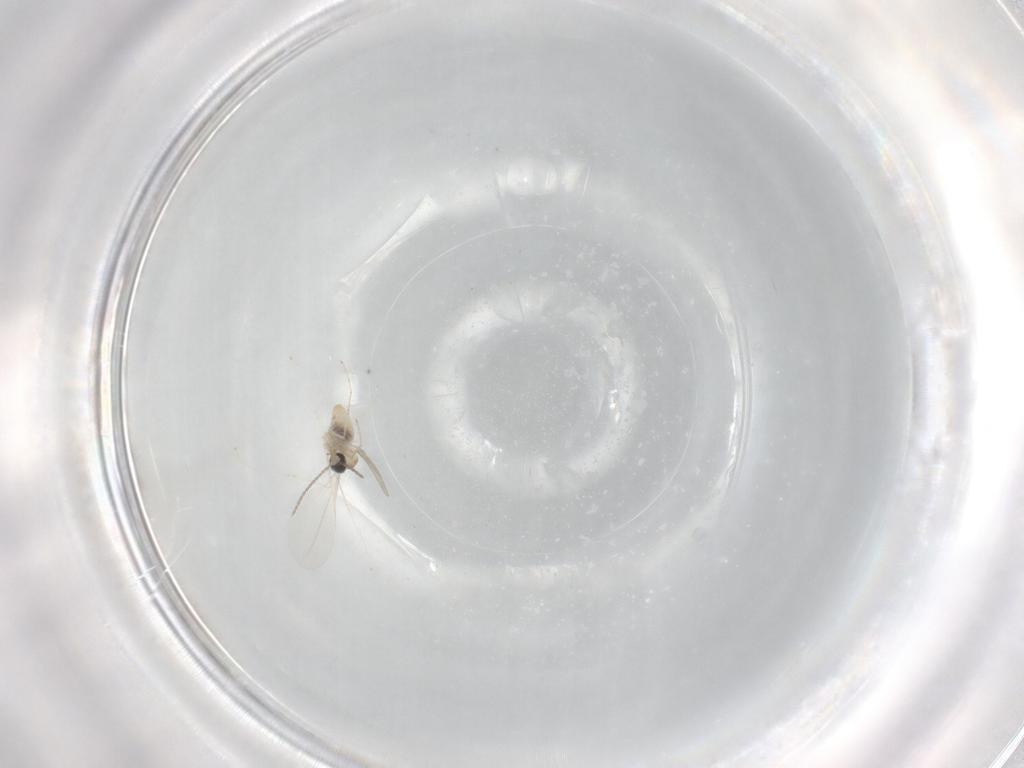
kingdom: Animalia
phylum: Arthropoda
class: Insecta
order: Diptera
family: Cecidomyiidae
